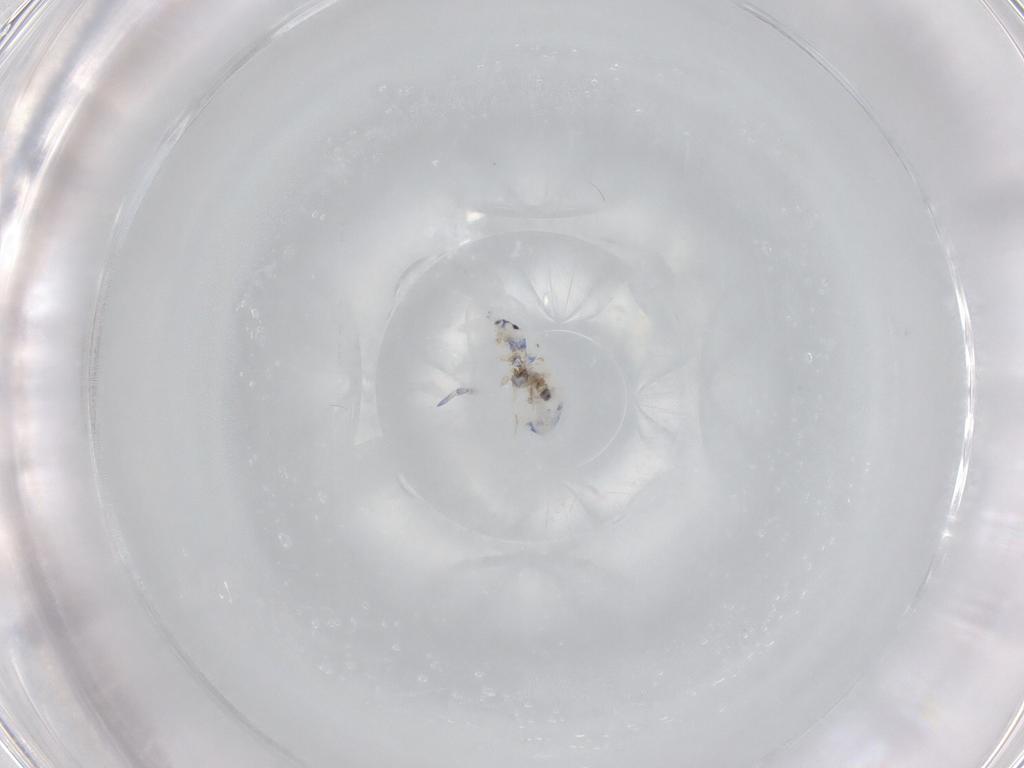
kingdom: Animalia
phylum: Arthropoda
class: Collembola
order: Entomobryomorpha
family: Entomobryidae
